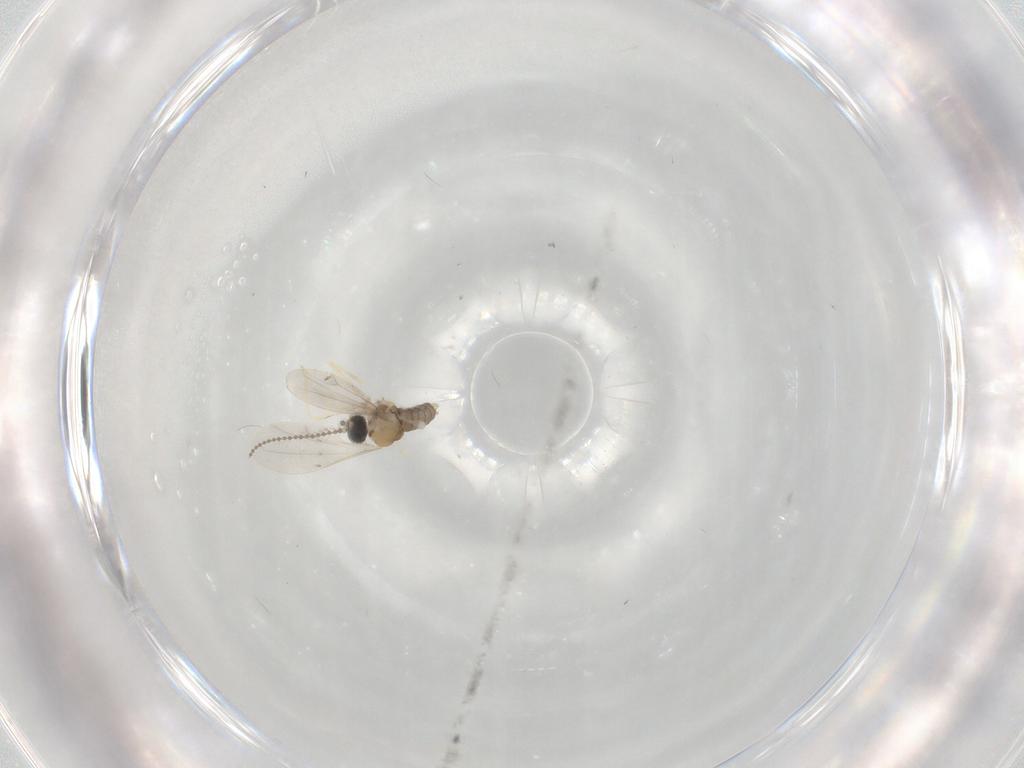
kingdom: Animalia
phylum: Arthropoda
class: Insecta
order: Diptera
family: Cecidomyiidae
